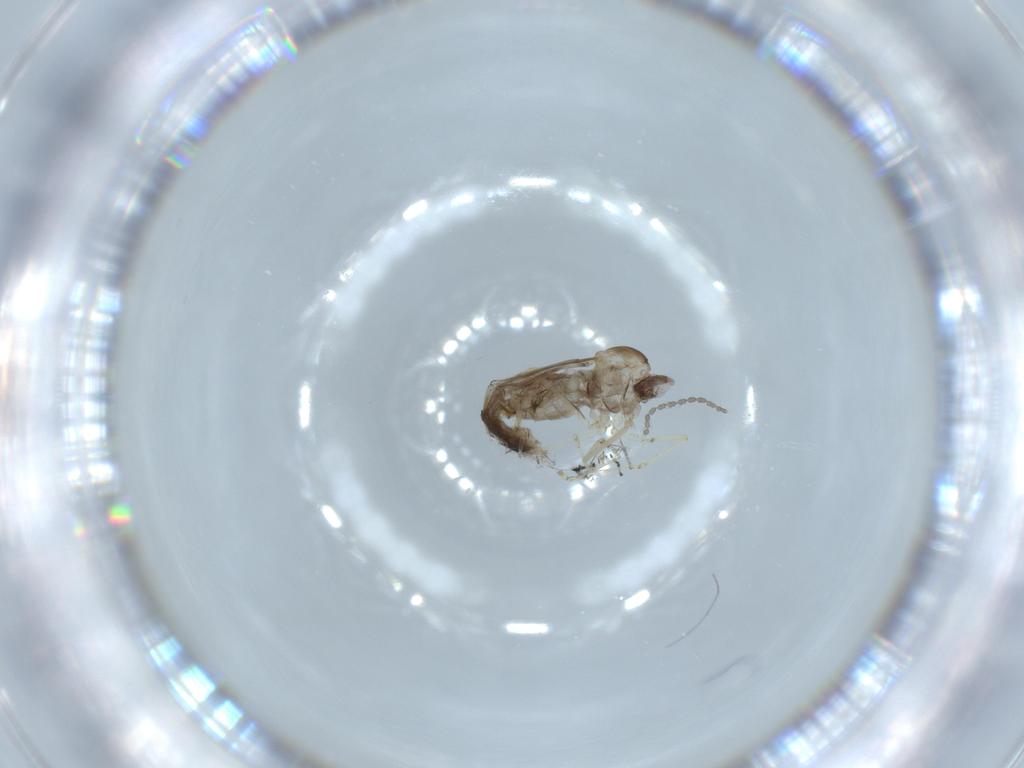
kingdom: Animalia
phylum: Arthropoda
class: Insecta
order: Diptera
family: Cecidomyiidae
